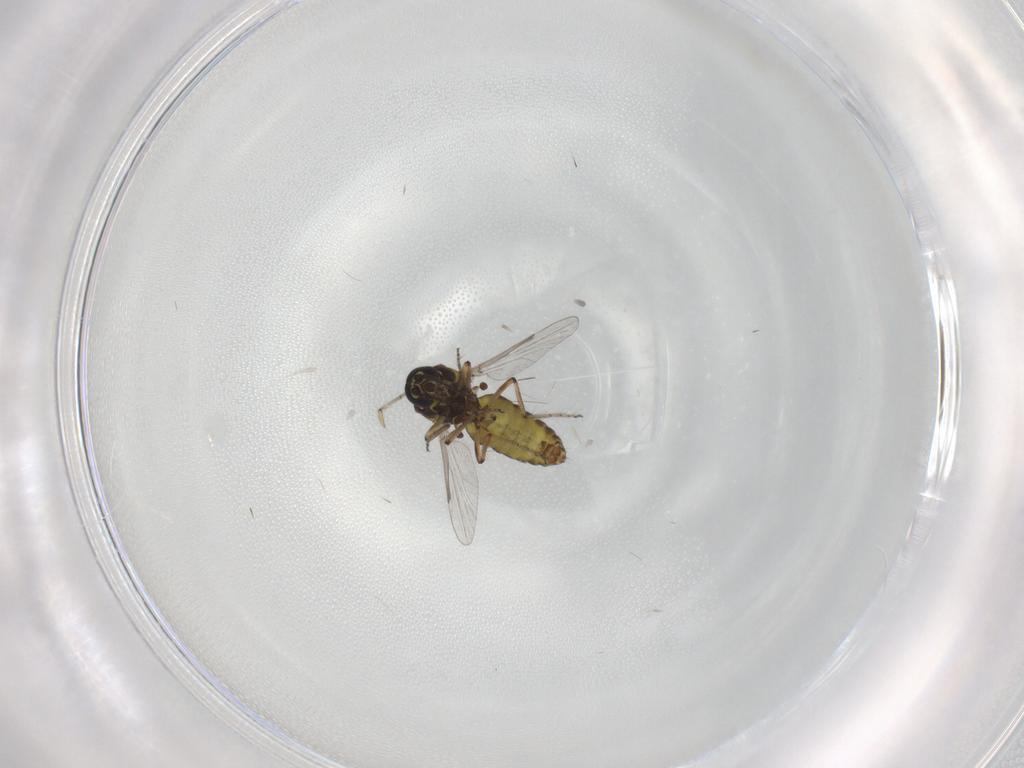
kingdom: Animalia
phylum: Arthropoda
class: Insecta
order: Diptera
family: Ceratopogonidae
